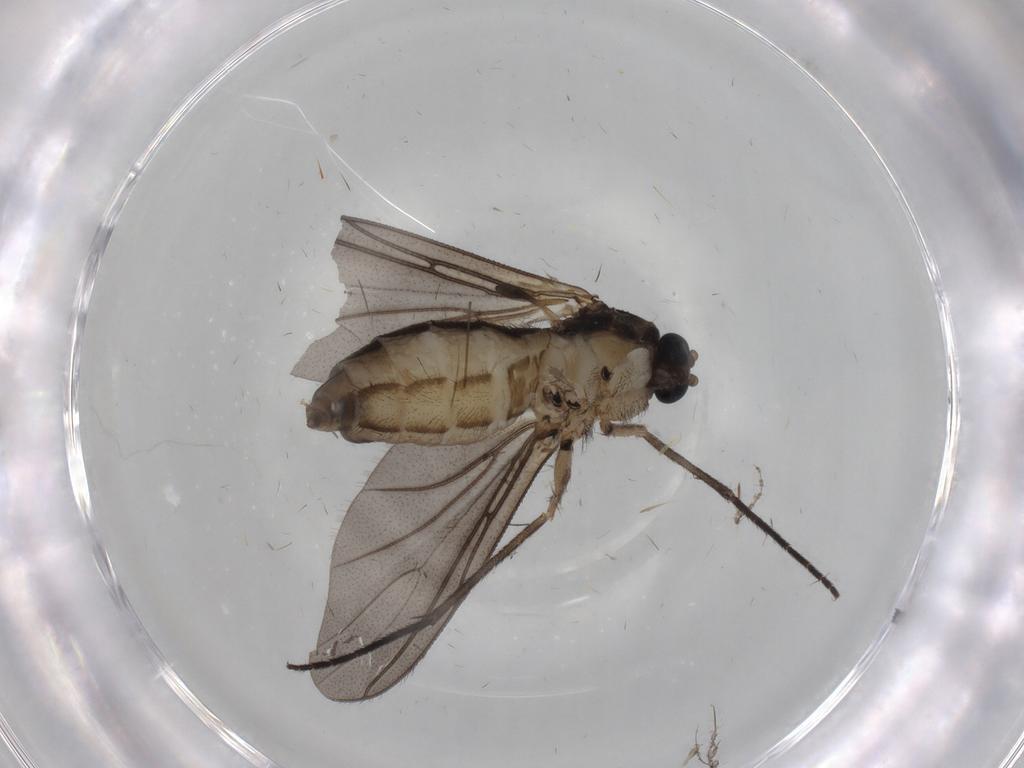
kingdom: Animalia
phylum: Arthropoda
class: Insecta
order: Diptera
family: Sciaridae
